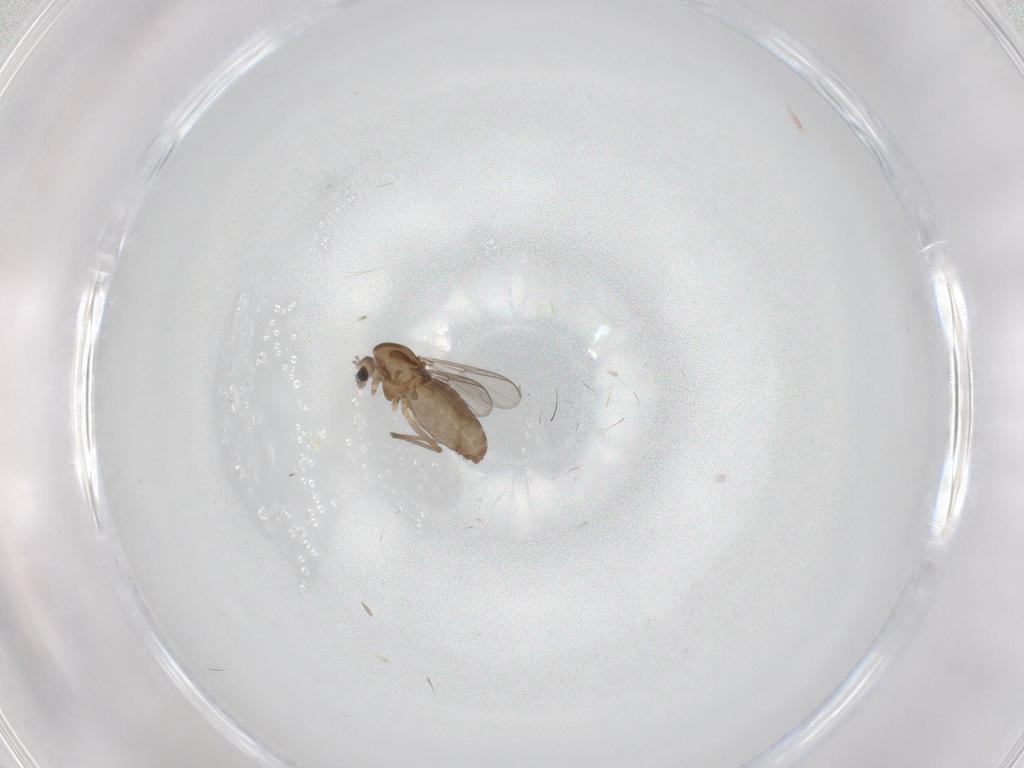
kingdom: Animalia
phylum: Arthropoda
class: Insecta
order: Diptera
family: Chironomidae
